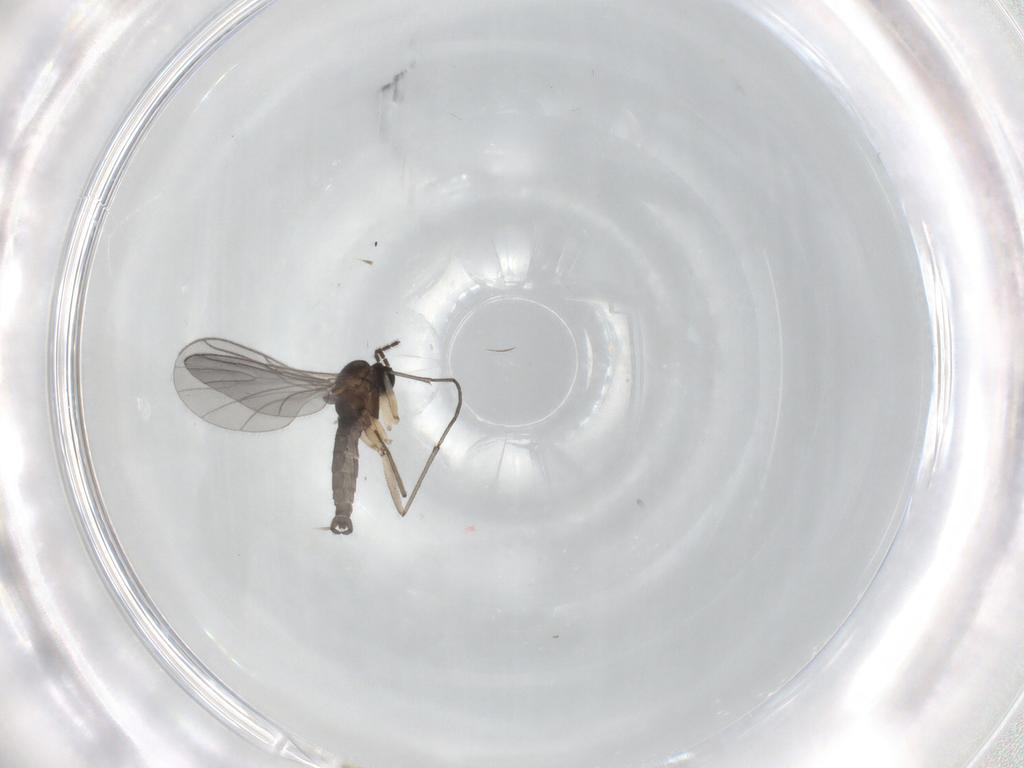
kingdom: Animalia
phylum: Arthropoda
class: Insecta
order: Diptera
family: Sciaridae
